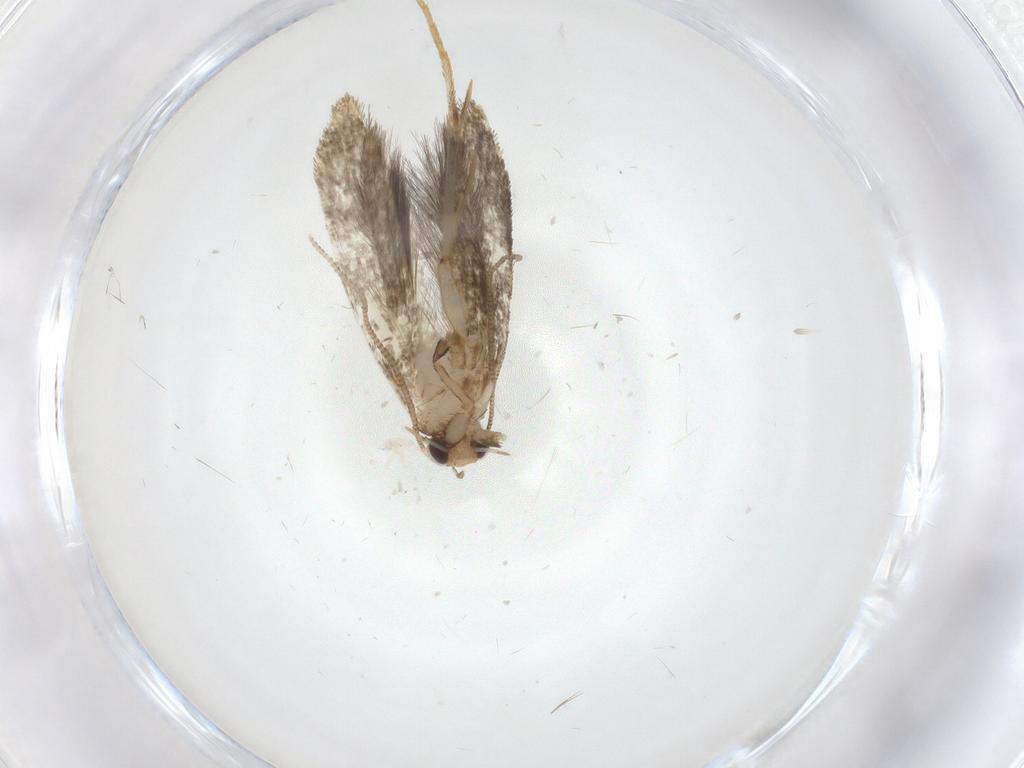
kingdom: Animalia
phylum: Arthropoda
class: Insecta
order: Lepidoptera
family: Tineidae
